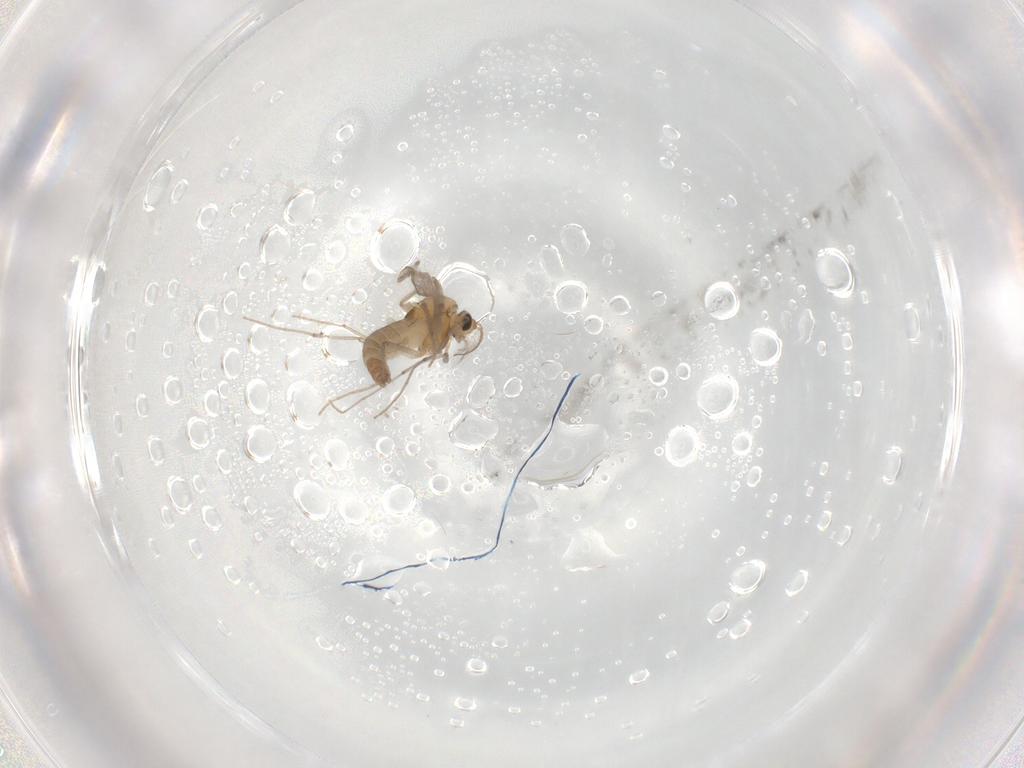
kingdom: Animalia
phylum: Arthropoda
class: Insecta
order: Diptera
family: Chironomidae
